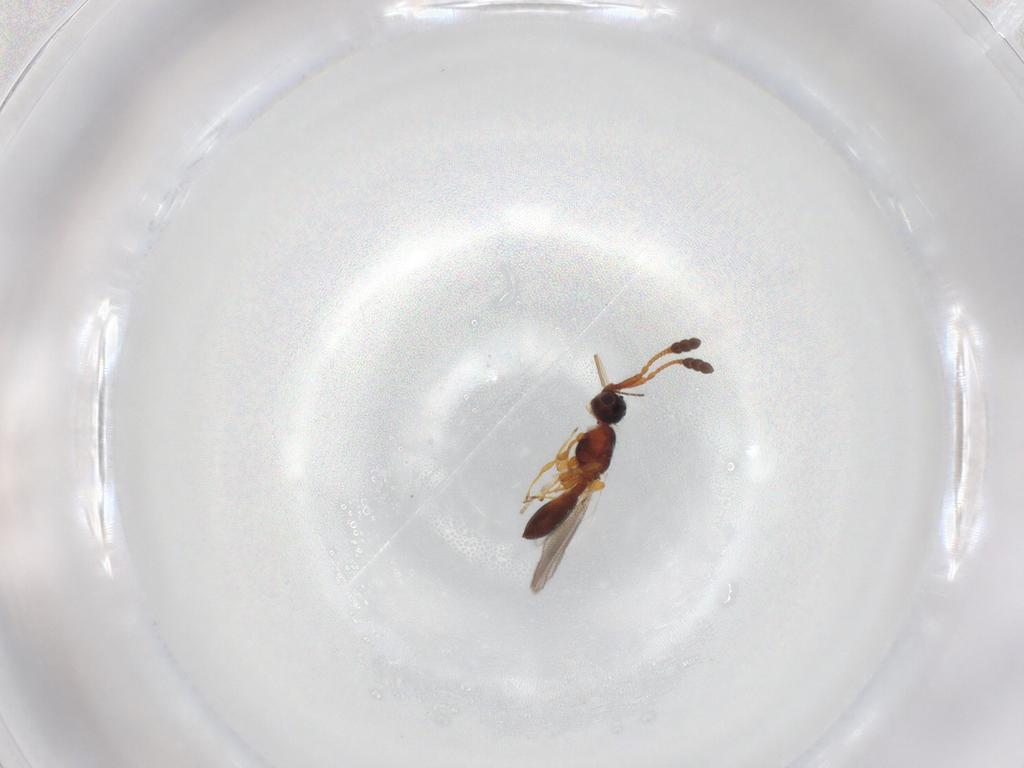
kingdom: Animalia
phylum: Arthropoda
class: Insecta
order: Hymenoptera
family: Diapriidae
